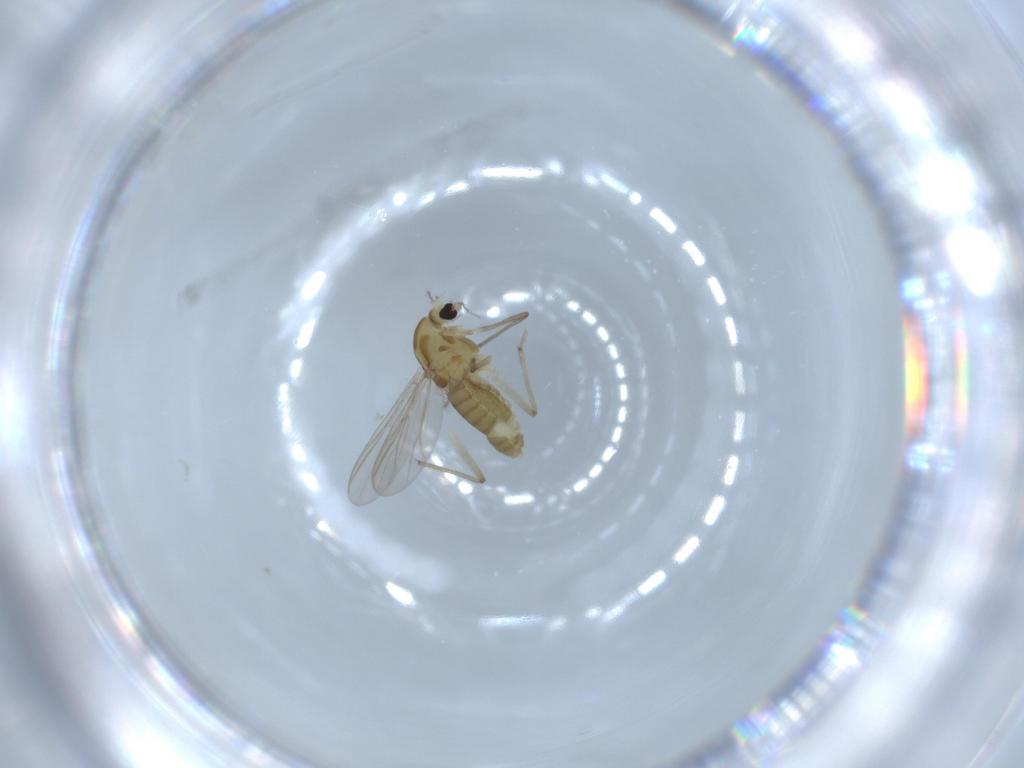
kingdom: Animalia
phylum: Arthropoda
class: Insecta
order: Diptera
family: Chironomidae
